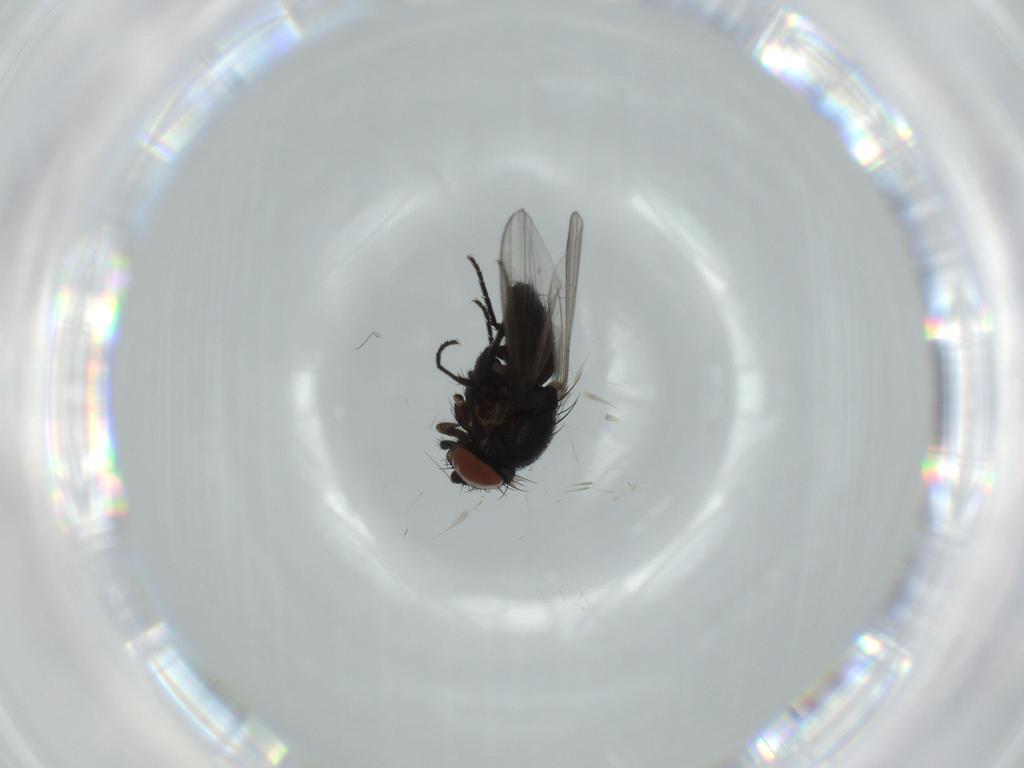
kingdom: Animalia
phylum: Arthropoda
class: Insecta
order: Diptera
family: Milichiidae
